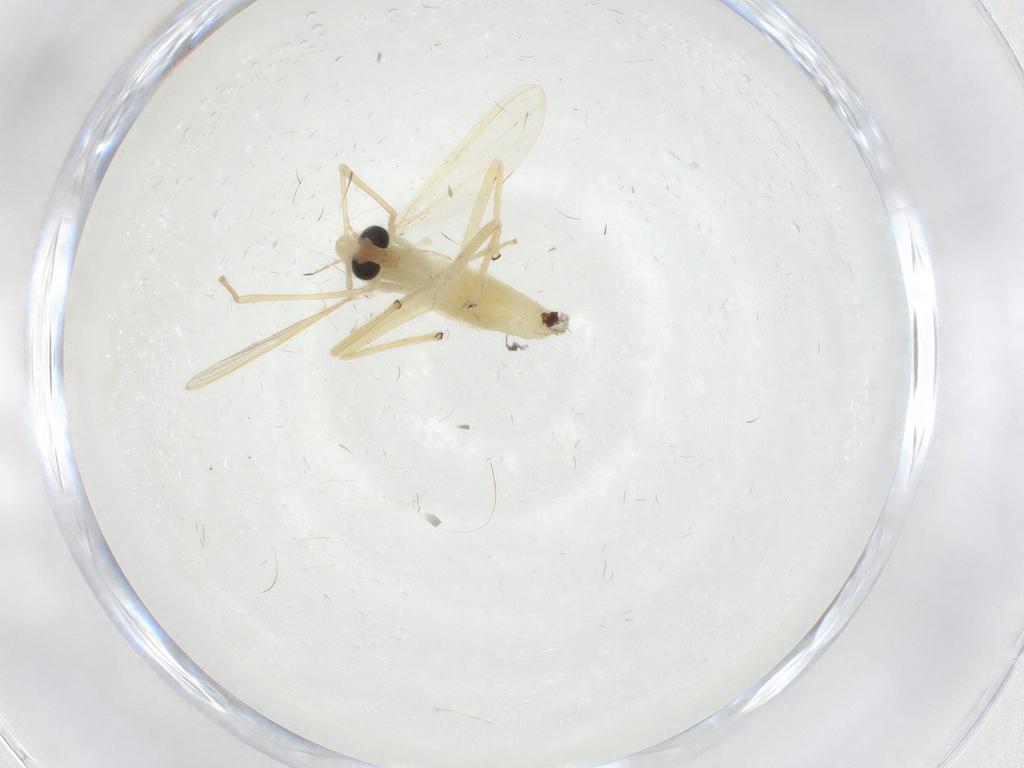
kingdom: Animalia
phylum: Arthropoda
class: Insecta
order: Diptera
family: Chironomidae
